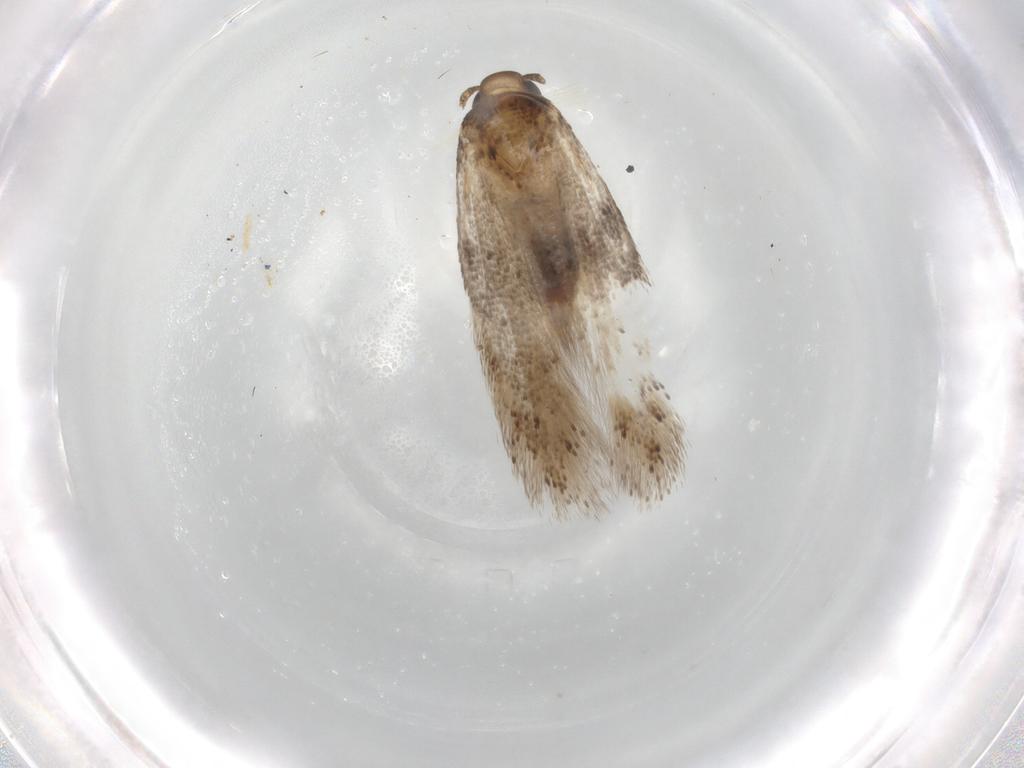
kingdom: Animalia
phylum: Arthropoda
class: Insecta
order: Lepidoptera
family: Gelechiidae
